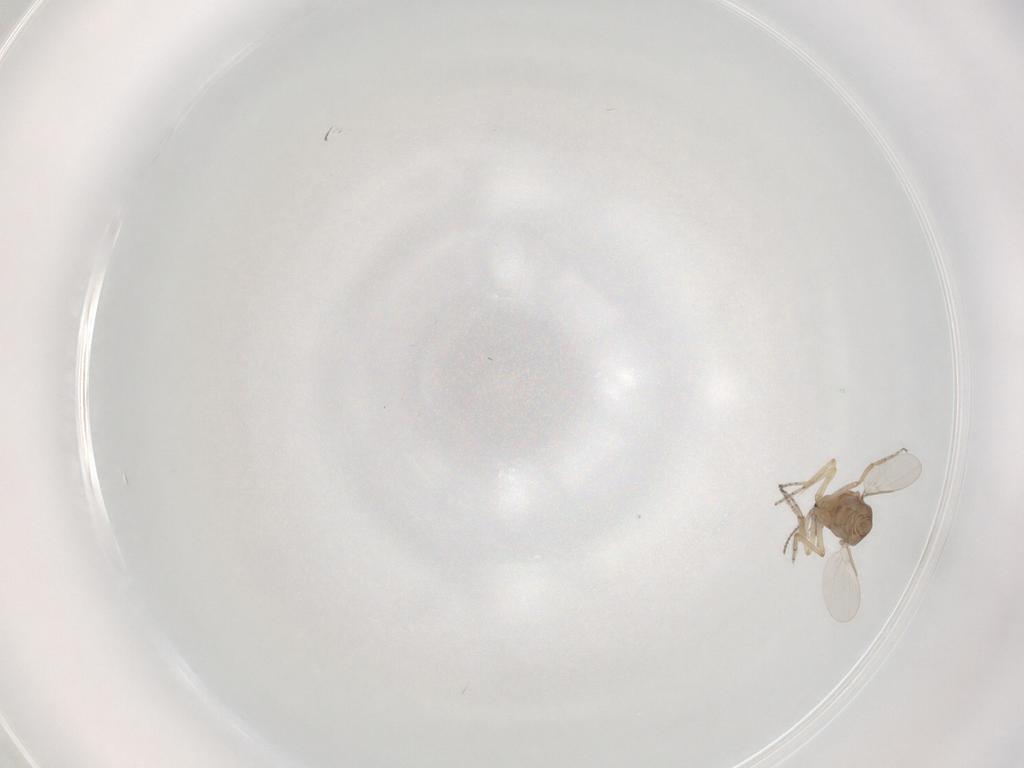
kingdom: Animalia
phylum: Arthropoda
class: Insecta
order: Diptera
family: Ceratopogonidae
